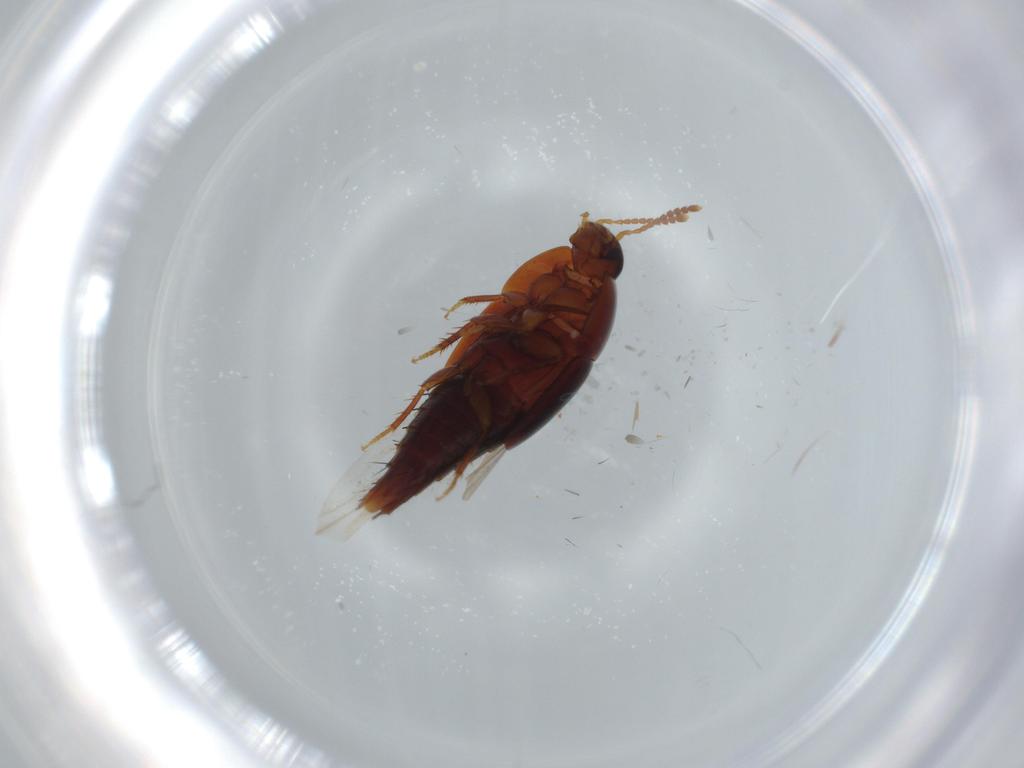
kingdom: Animalia
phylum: Arthropoda
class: Insecta
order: Coleoptera
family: Staphylinidae
